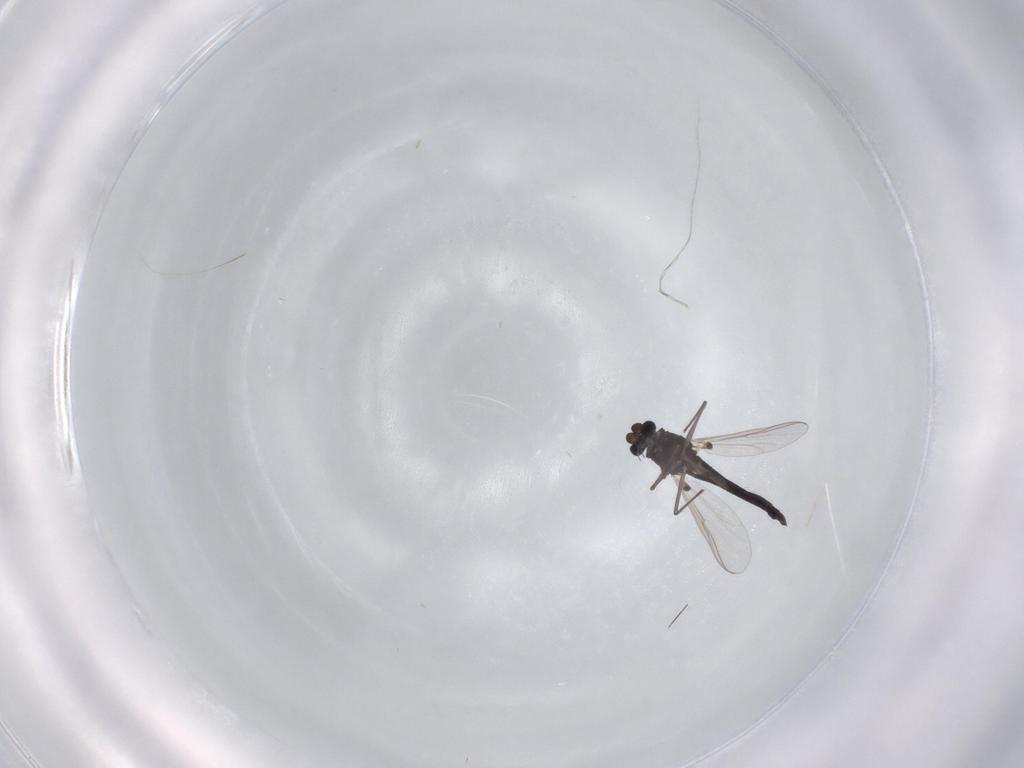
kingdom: Animalia
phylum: Arthropoda
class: Insecta
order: Diptera
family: Chironomidae
